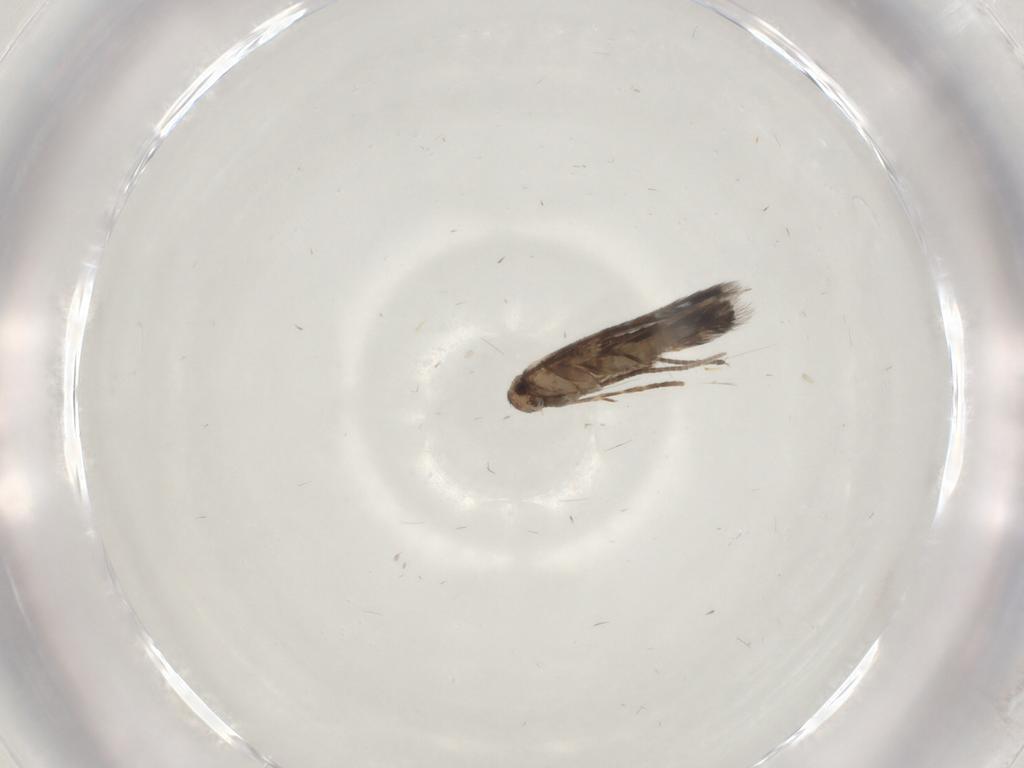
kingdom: Animalia
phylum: Arthropoda
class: Insecta
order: Lepidoptera
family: Gracillariidae
